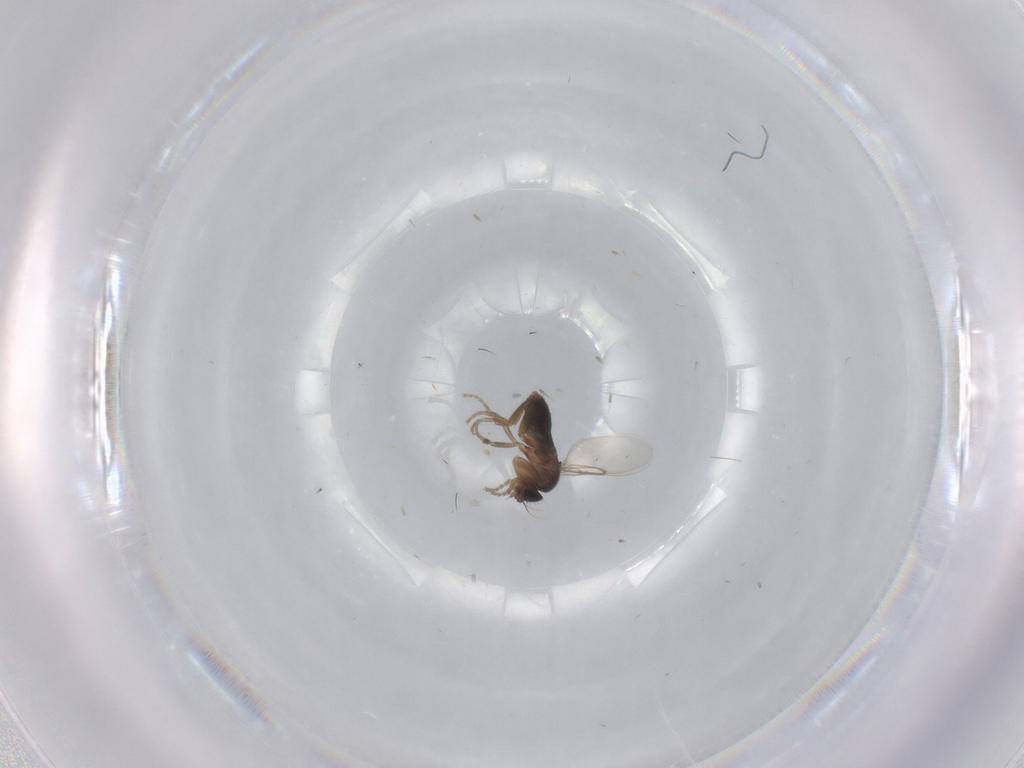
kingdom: Animalia
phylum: Arthropoda
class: Insecta
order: Diptera
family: Phoridae
